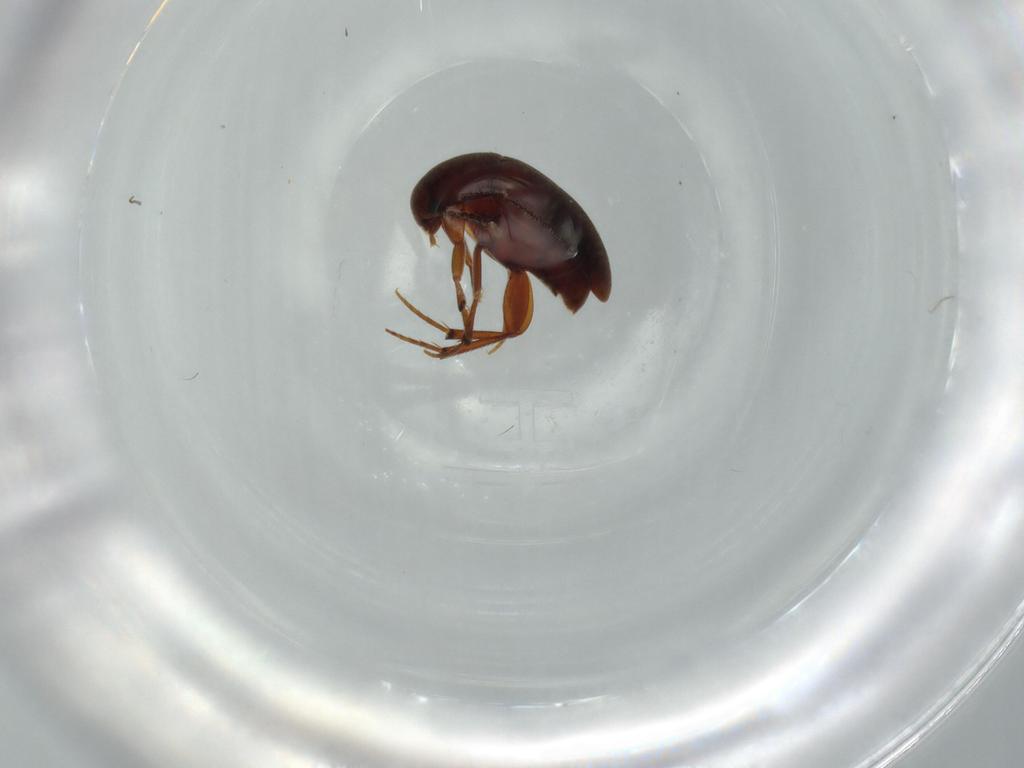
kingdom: Animalia
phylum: Arthropoda
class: Insecta
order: Coleoptera
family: Leiodidae
